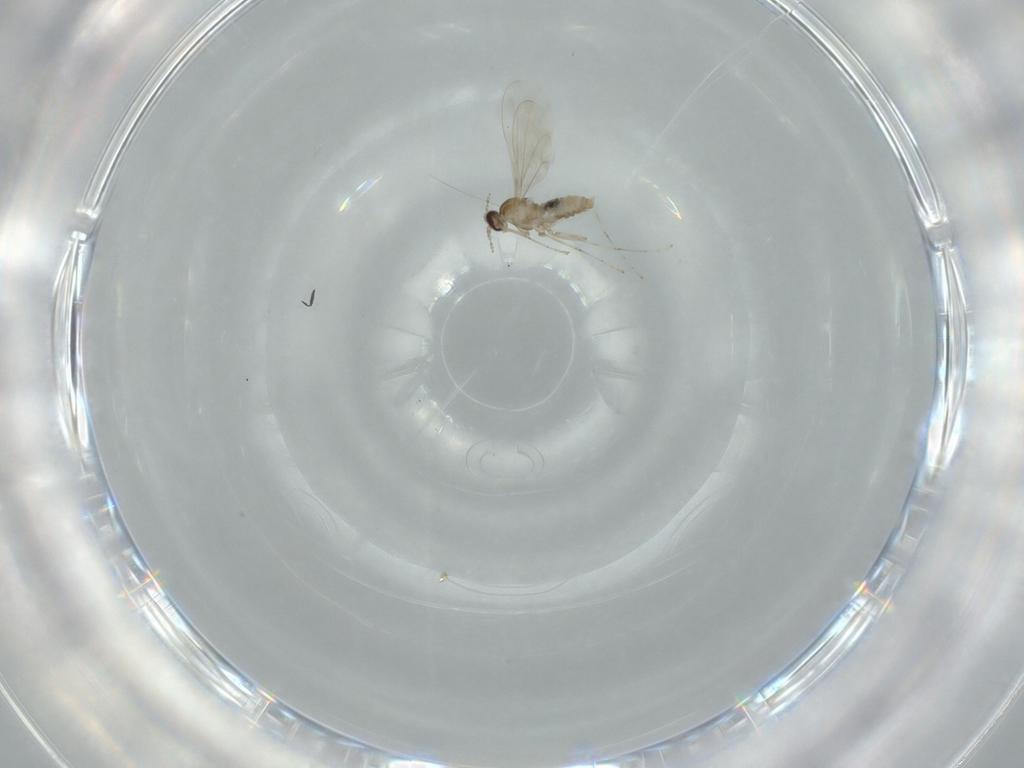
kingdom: Animalia
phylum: Arthropoda
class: Insecta
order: Diptera
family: Cecidomyiidae
